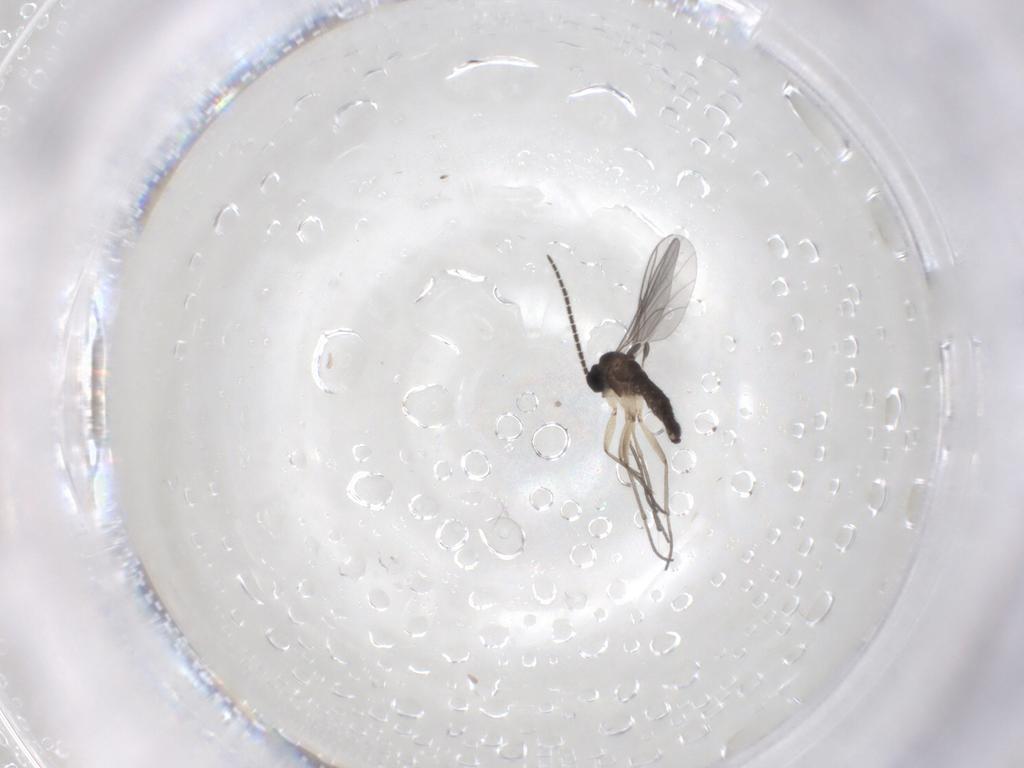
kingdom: Animalia
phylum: Arthropoda
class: Insecta
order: Diptera
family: Sciaridae
